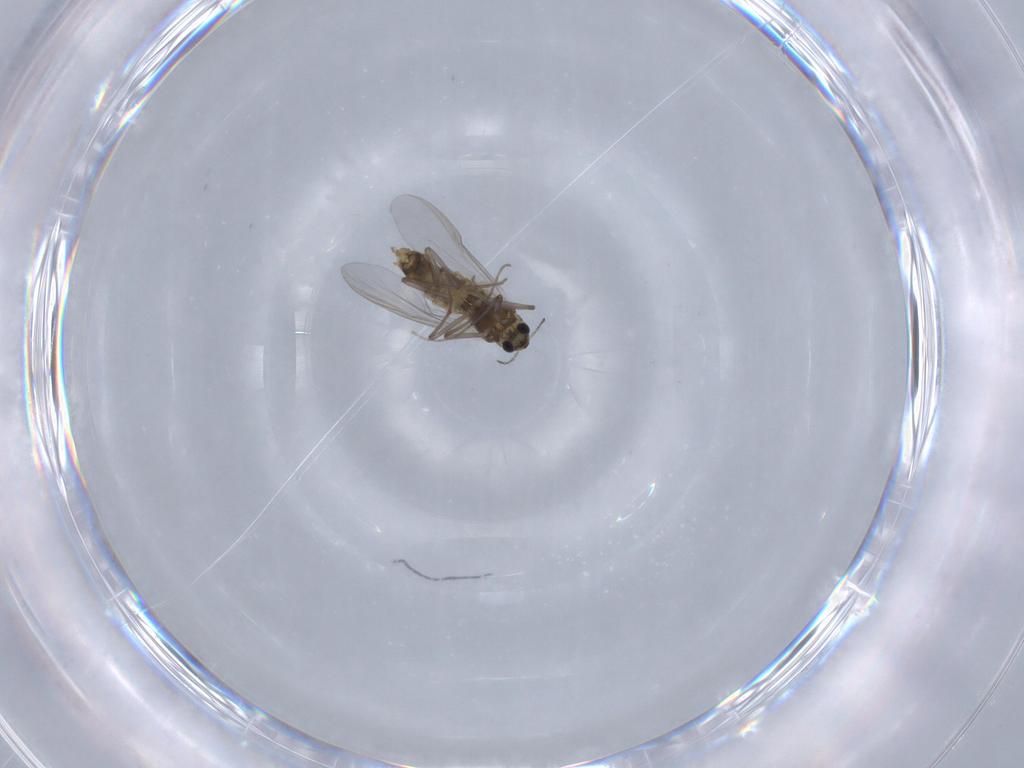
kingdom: Animalia
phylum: Arthropoda
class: Insecta
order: Diptera
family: Chironomidae
